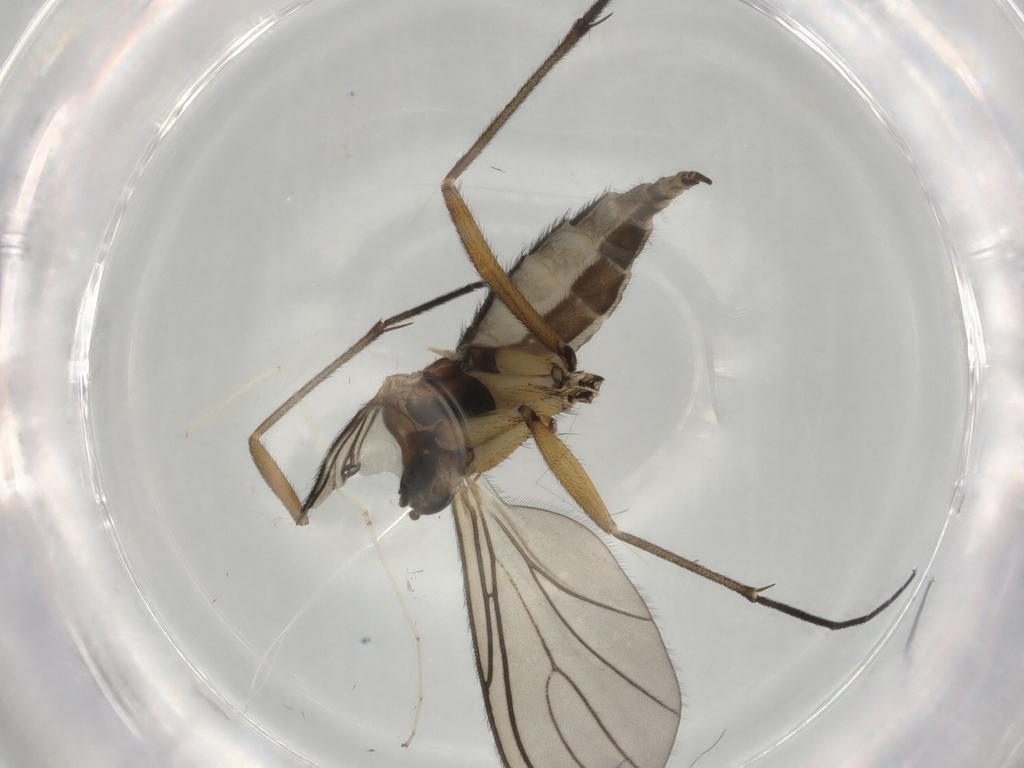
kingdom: Animalia
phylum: Arthropoda
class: Insecta
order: Diptera
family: Sciaridae
